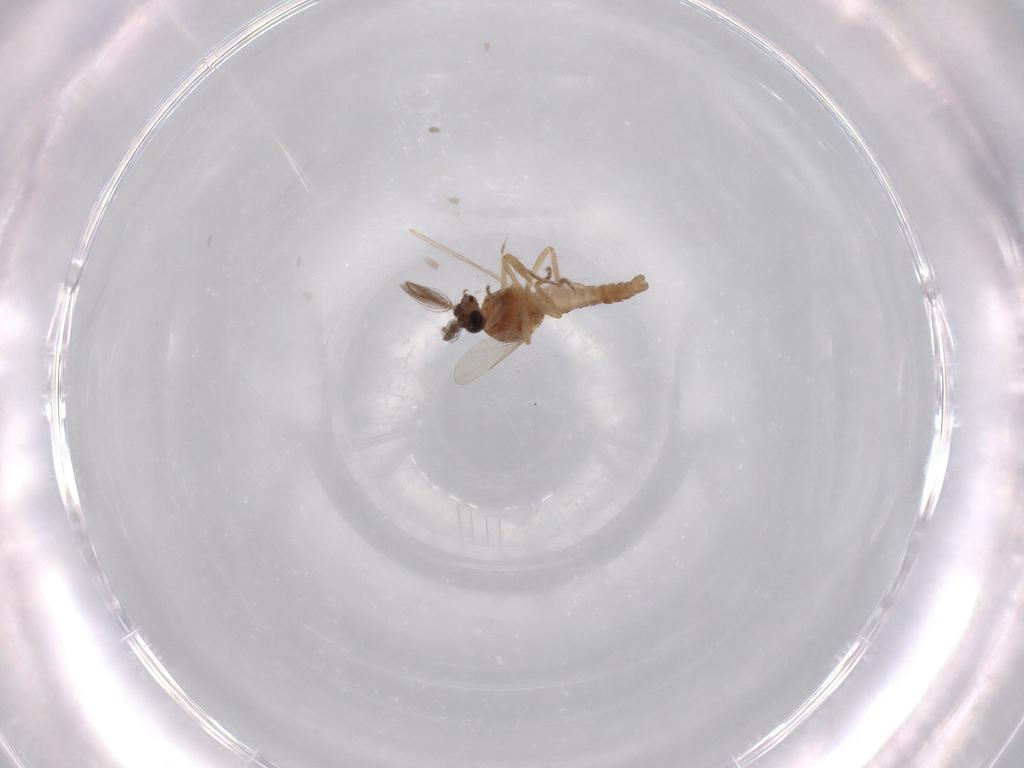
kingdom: Animalia
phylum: Arthropoda
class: Insecta
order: Diptera
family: Ceratopogonidae
